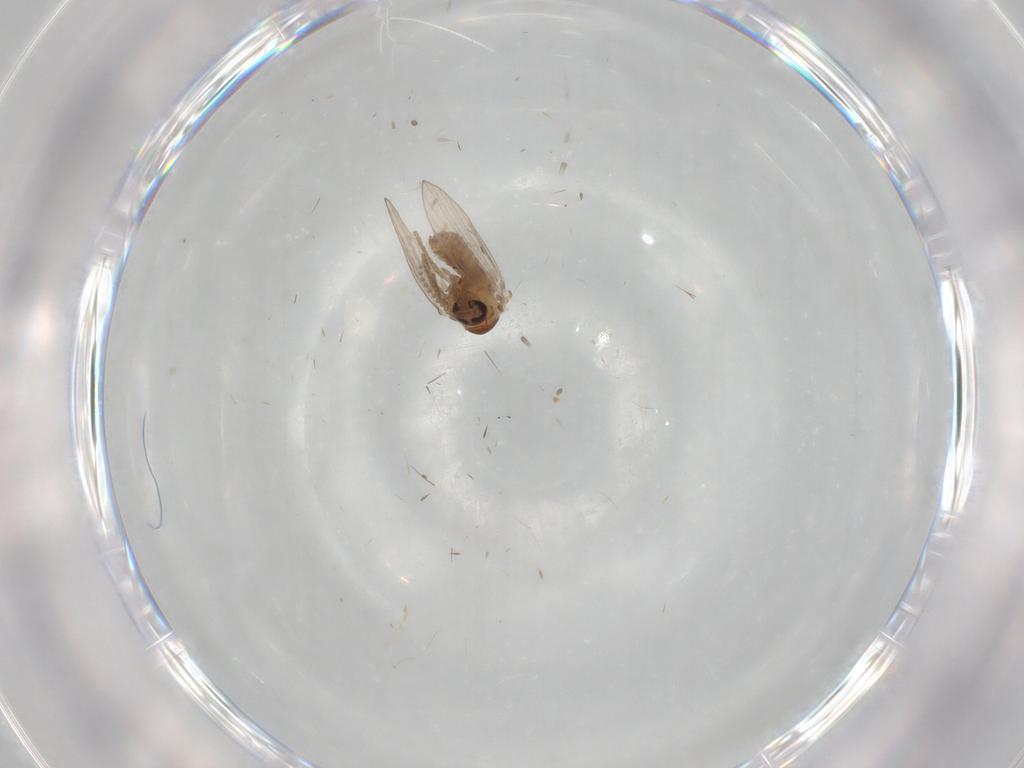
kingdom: Animalia
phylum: Arthropoda
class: Insecta
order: Diptera
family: Psychodidae
